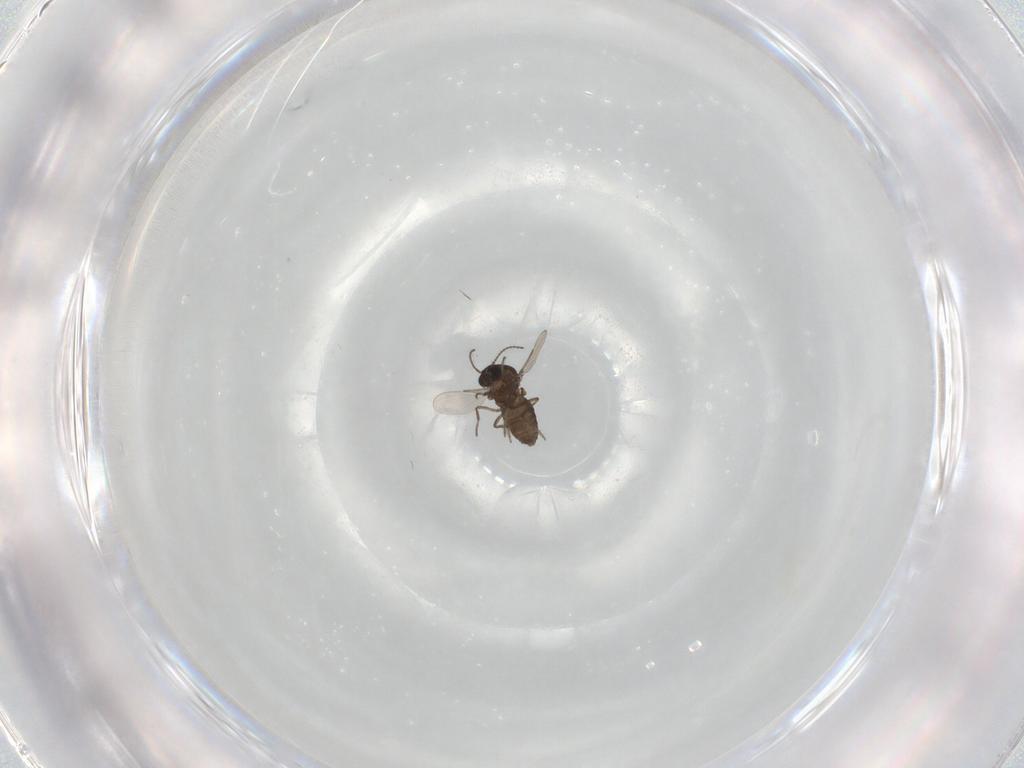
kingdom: Animalia
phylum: Arthropoda
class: Insecta
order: Diptera
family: Ceratopogonidae
